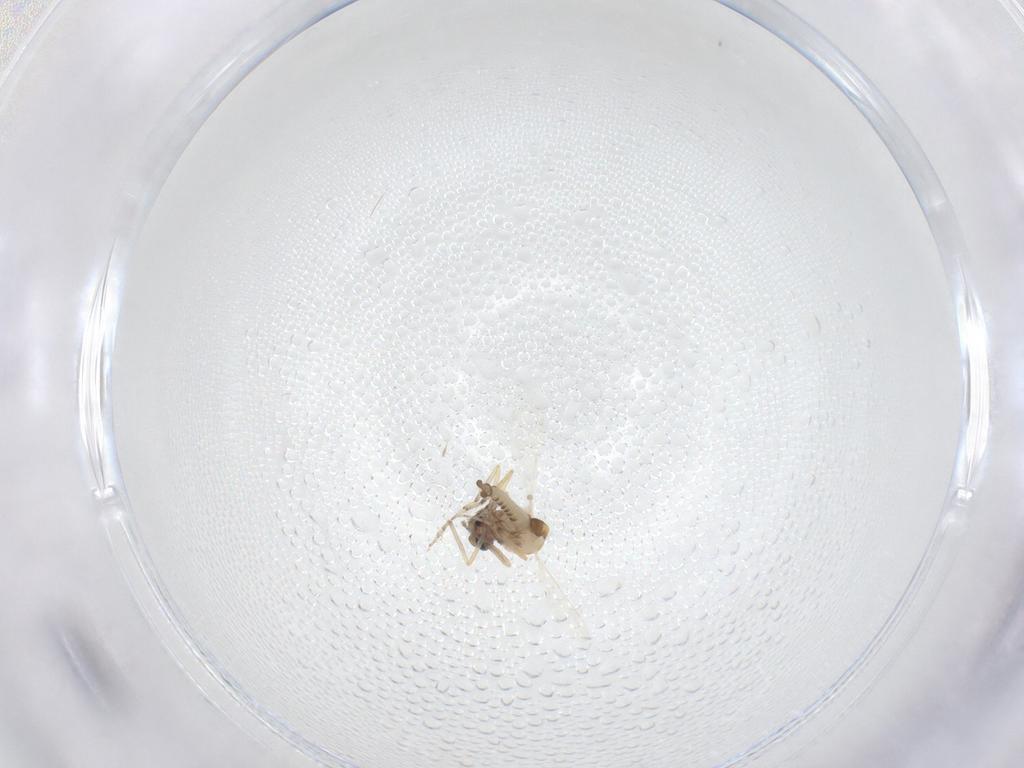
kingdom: Animalia
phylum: Arthropoda
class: Insecta
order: Diptera
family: Ceratopogonidae
